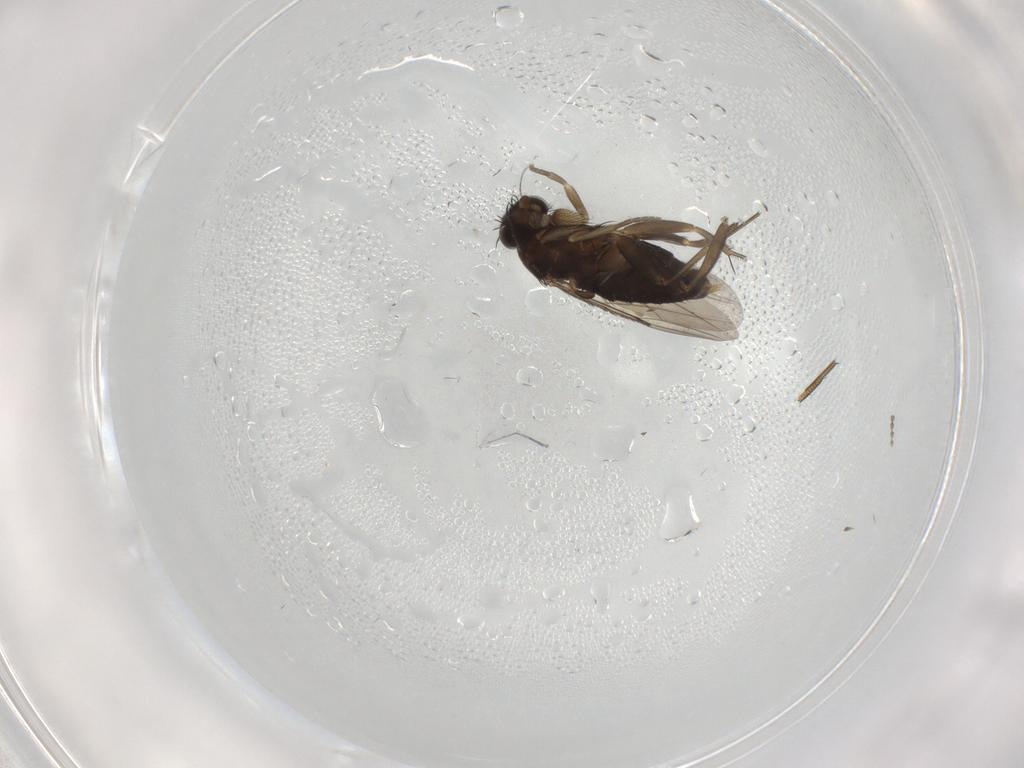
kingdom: Animalia
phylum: Arthropoda
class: Insecta
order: Diptera
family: Phoridae
